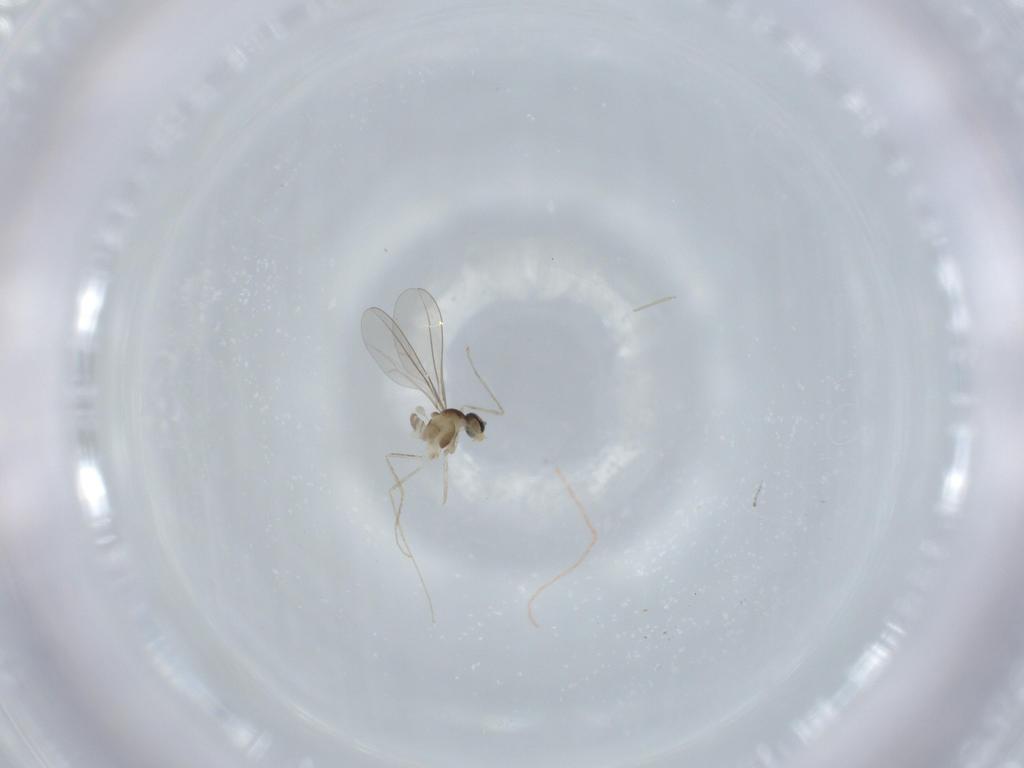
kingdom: Animalia
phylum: Arthropoda
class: Insecta
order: Diptera
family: Cecidomyiidae
